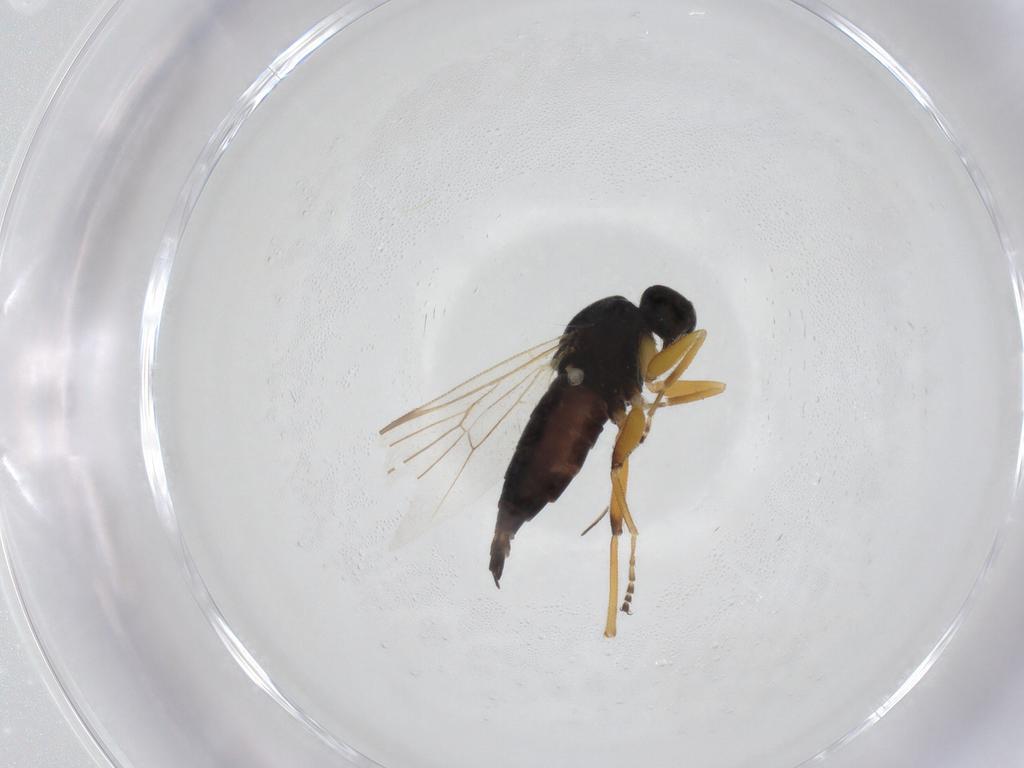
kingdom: Animalia
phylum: Arthropoda
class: Insecta
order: Diptera
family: Hybotidae
